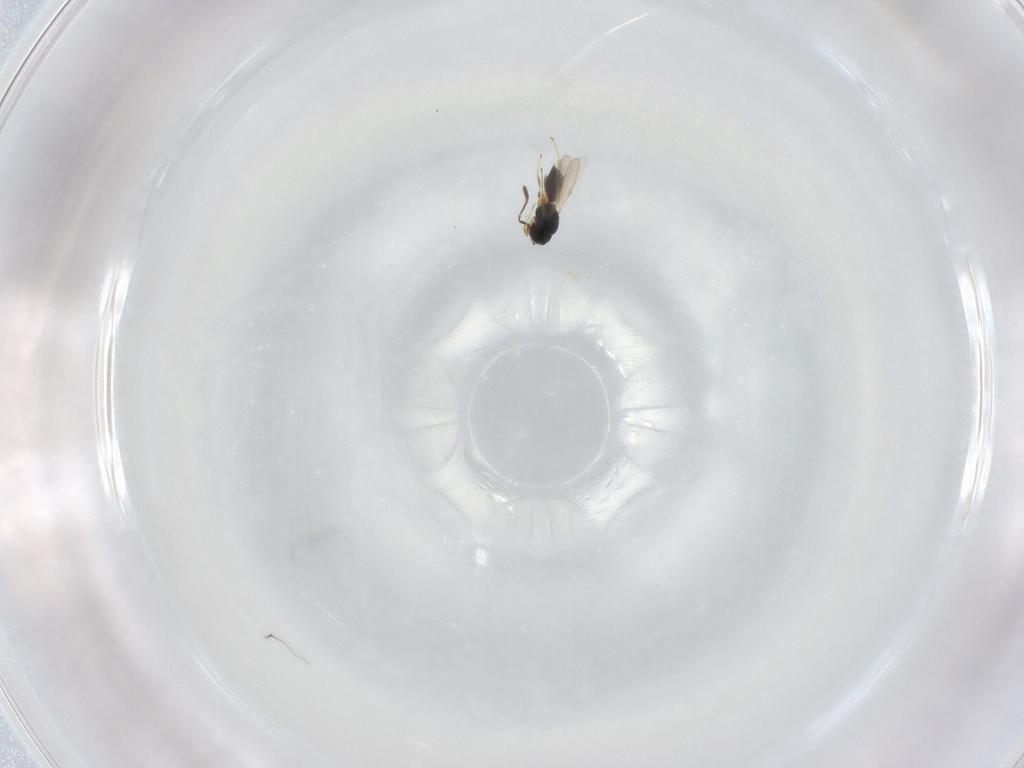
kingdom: Animalia
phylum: Arthropoda
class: Insecta
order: Hymenoptera
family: Scelionidae
